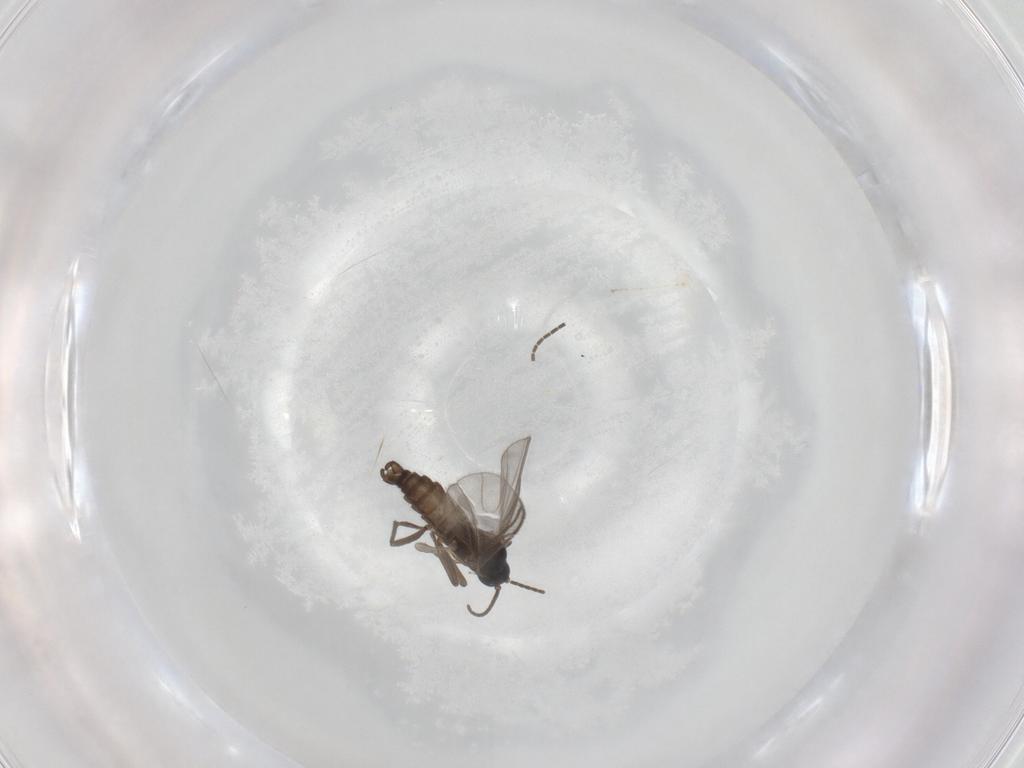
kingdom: Animalia
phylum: Arthropoda
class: Insecta
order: Diptera
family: Sciaridae
